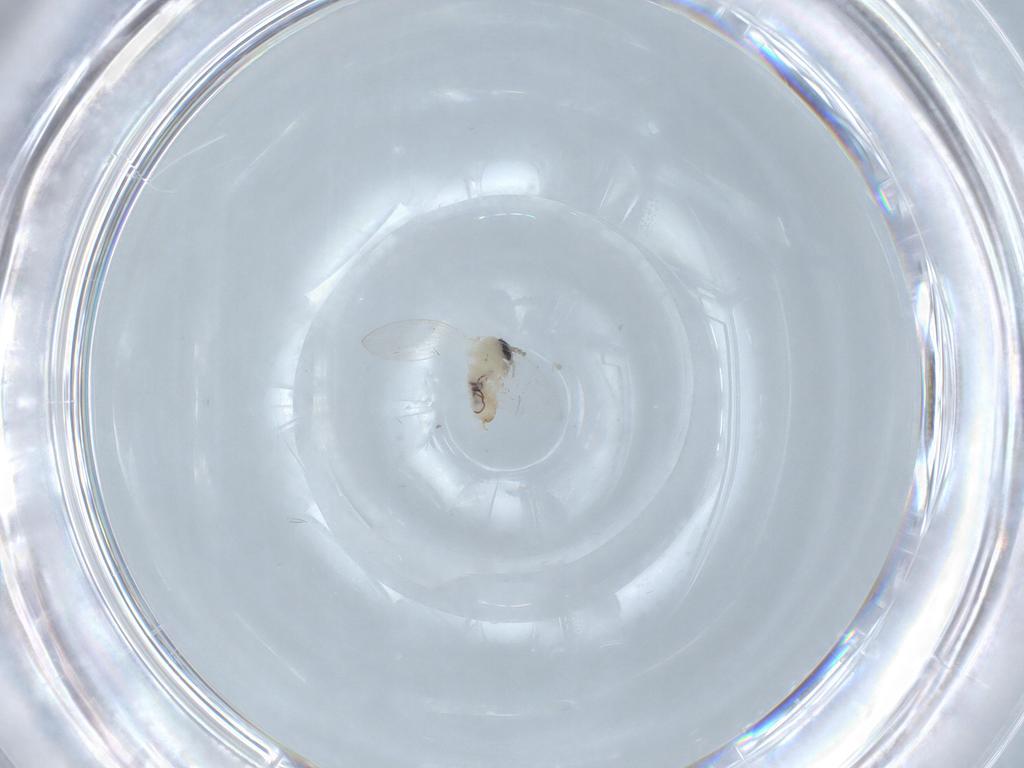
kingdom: Animalia
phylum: Arthropoda
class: Insecta
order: Diptera
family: Psychodidae
